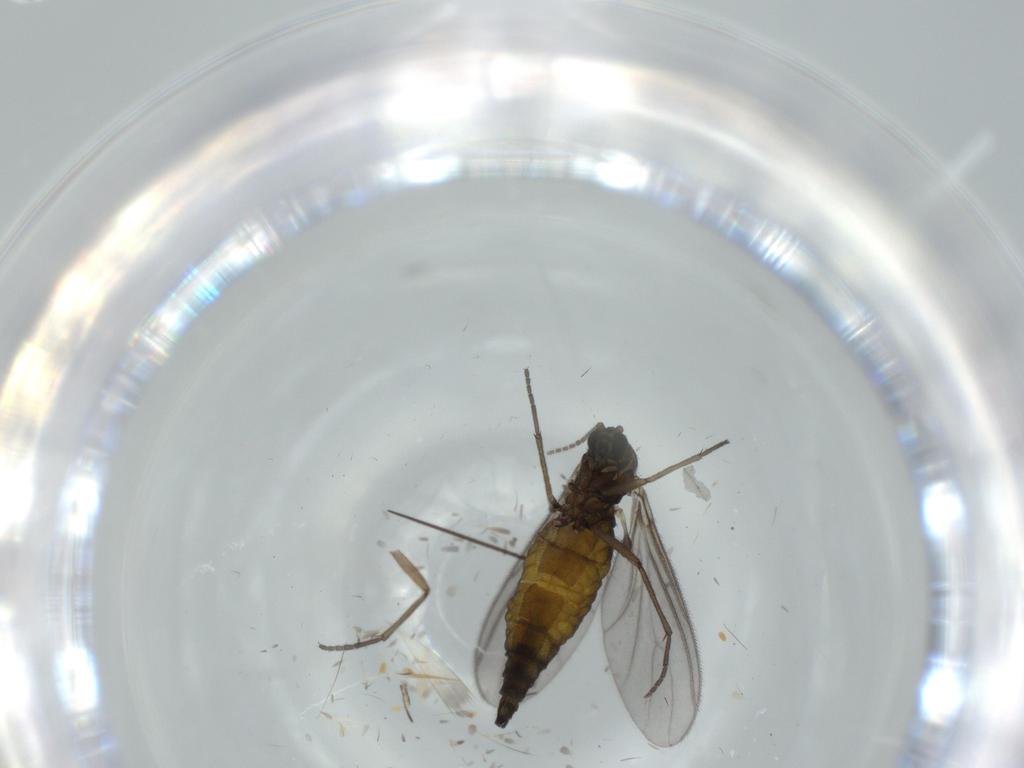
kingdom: Animalia
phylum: Arthropoda
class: Insecta
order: Diptera
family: Sciaridae
